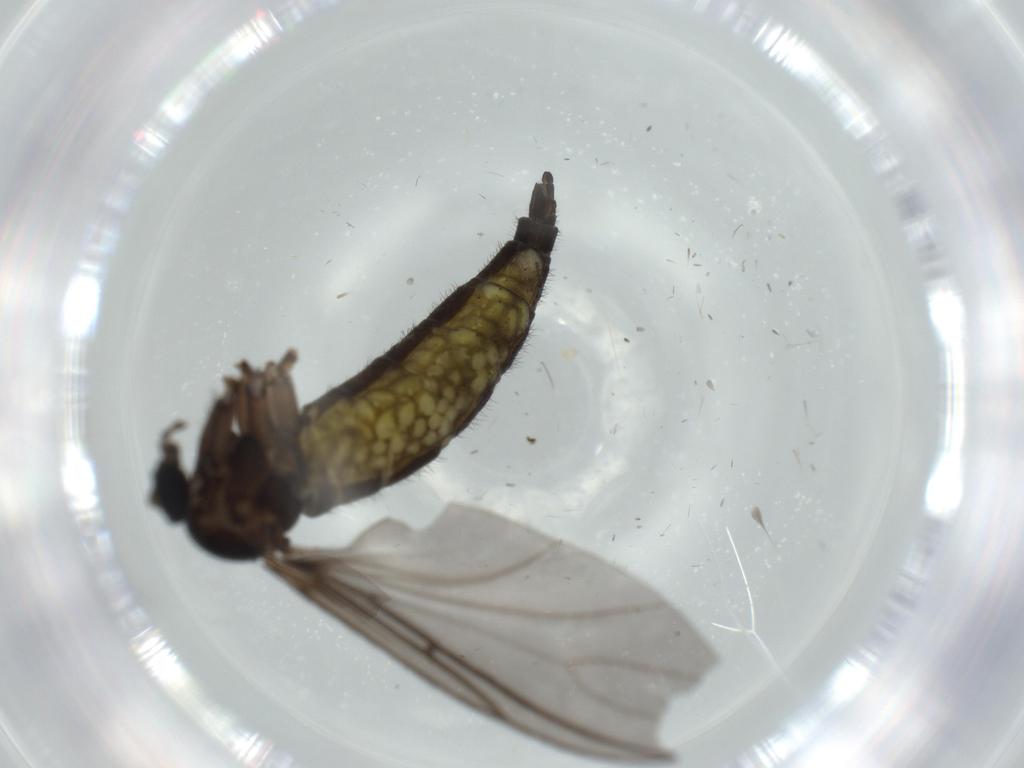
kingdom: Animalia
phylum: Arthropoda
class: Insecta
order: Diptera
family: Sciaridae
